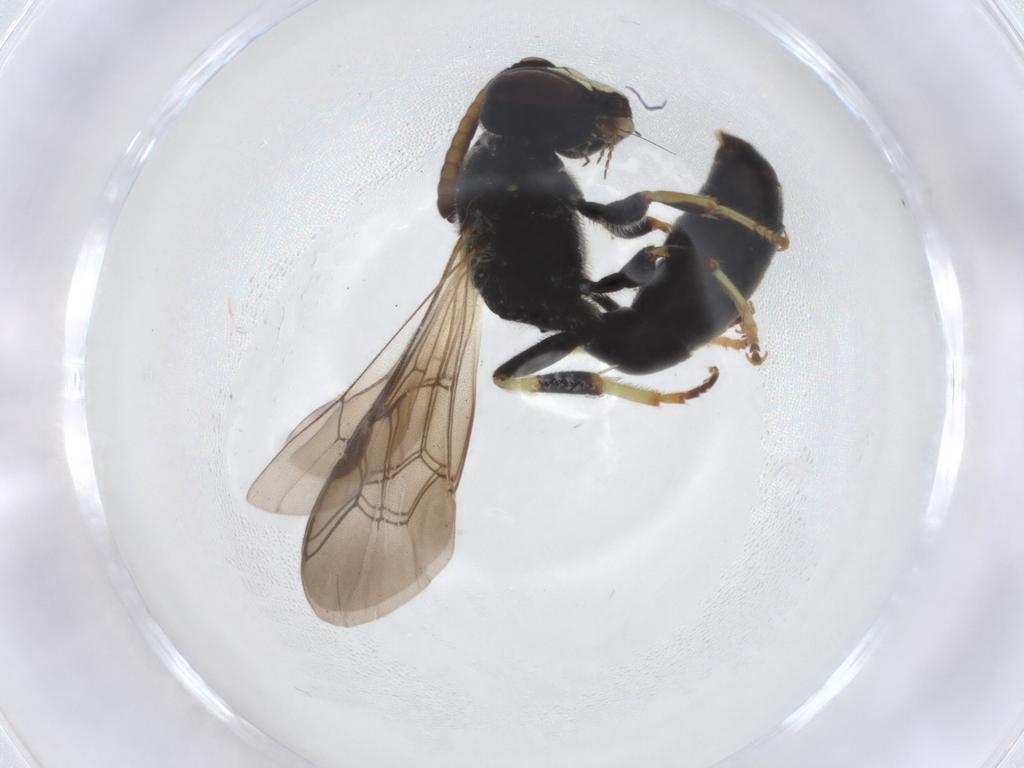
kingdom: Animalia
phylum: Arthropoda
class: Insecta
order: Hymenoptera
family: Colletidae
